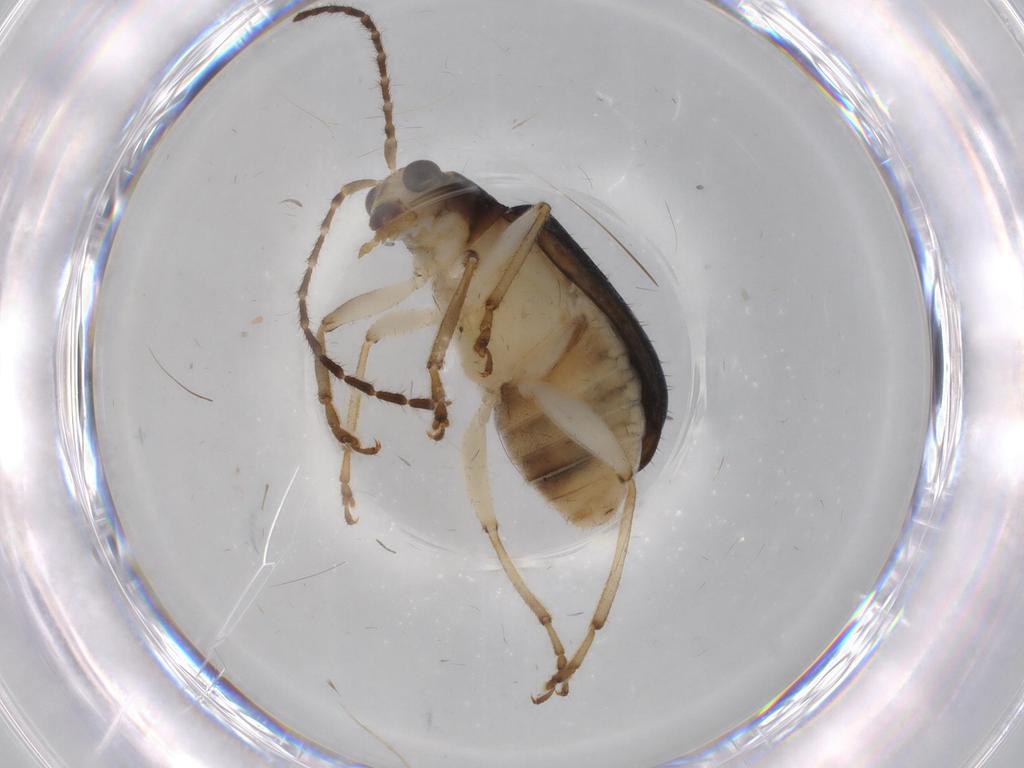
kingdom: Animalia
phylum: Arthropoda
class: Insecta
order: Coleoptera
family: Chrysomelidae
